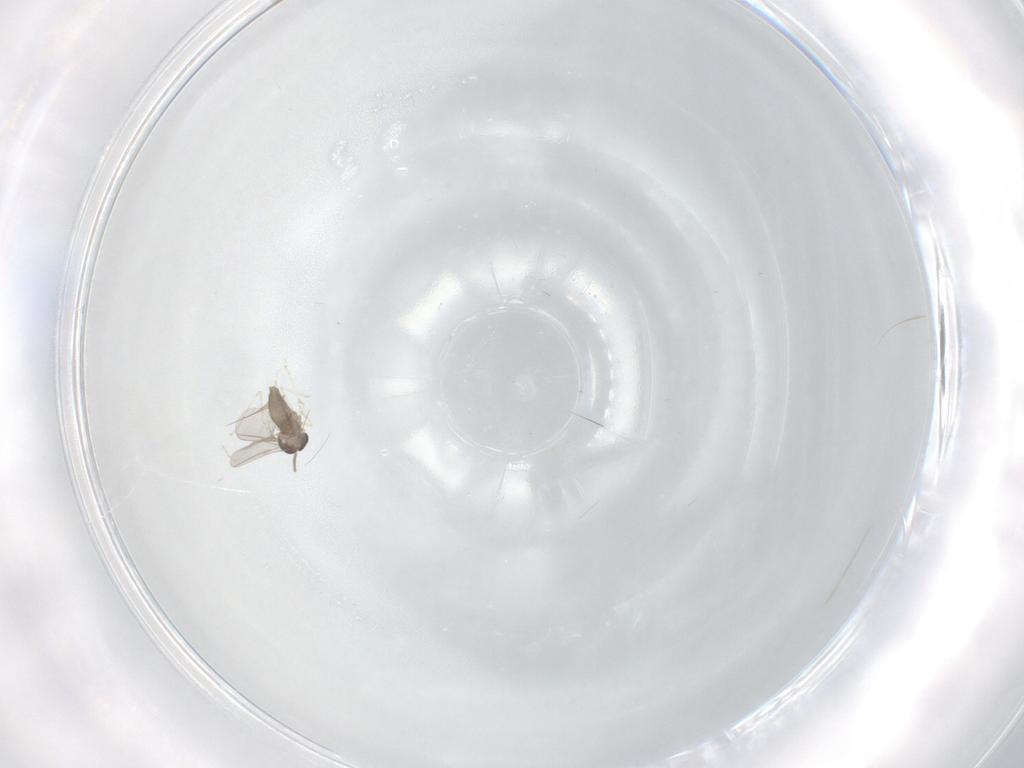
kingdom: Animalia
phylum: Arthropoda
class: Insecta
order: Diptera
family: Cecidomyiidae
